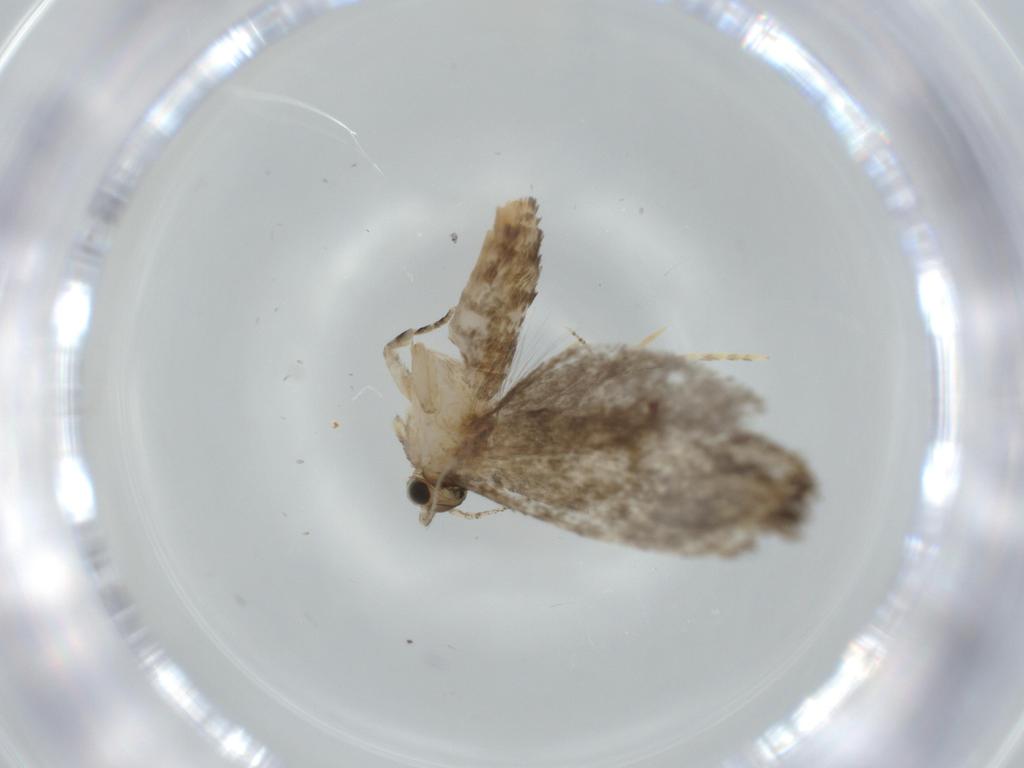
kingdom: Animalia
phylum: Arthropoda
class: Insecta
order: Lepidoptera
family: Tineidae
